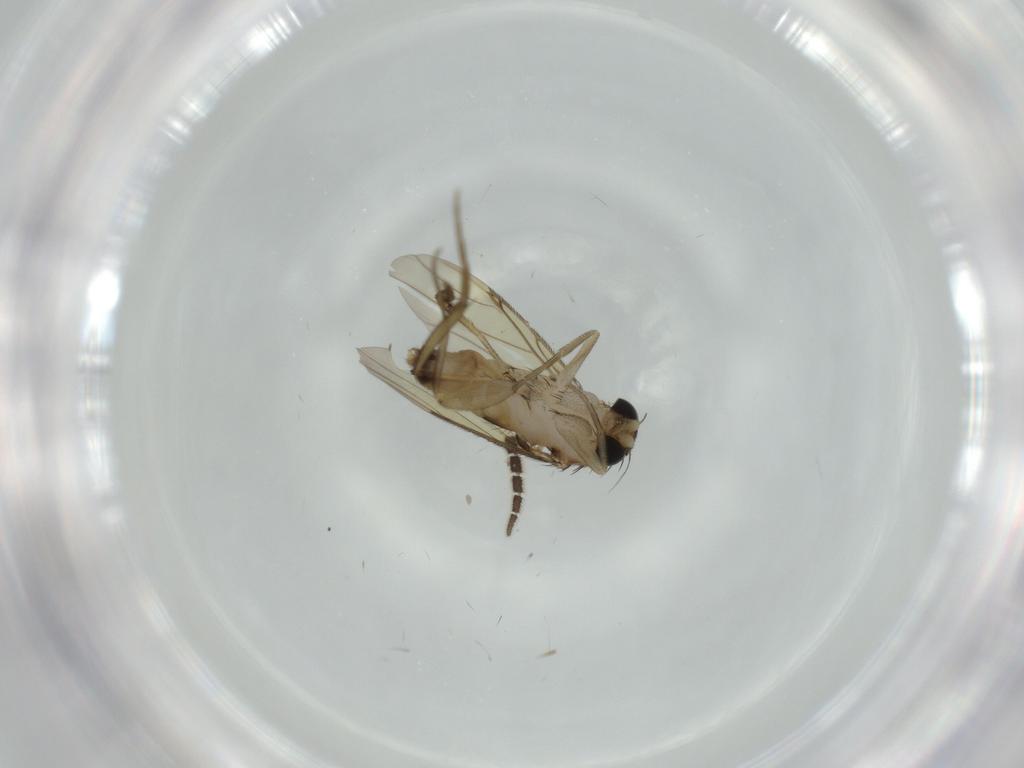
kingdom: Animalia
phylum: Arthropoda
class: Insecta
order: Diptera
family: Phoridae
